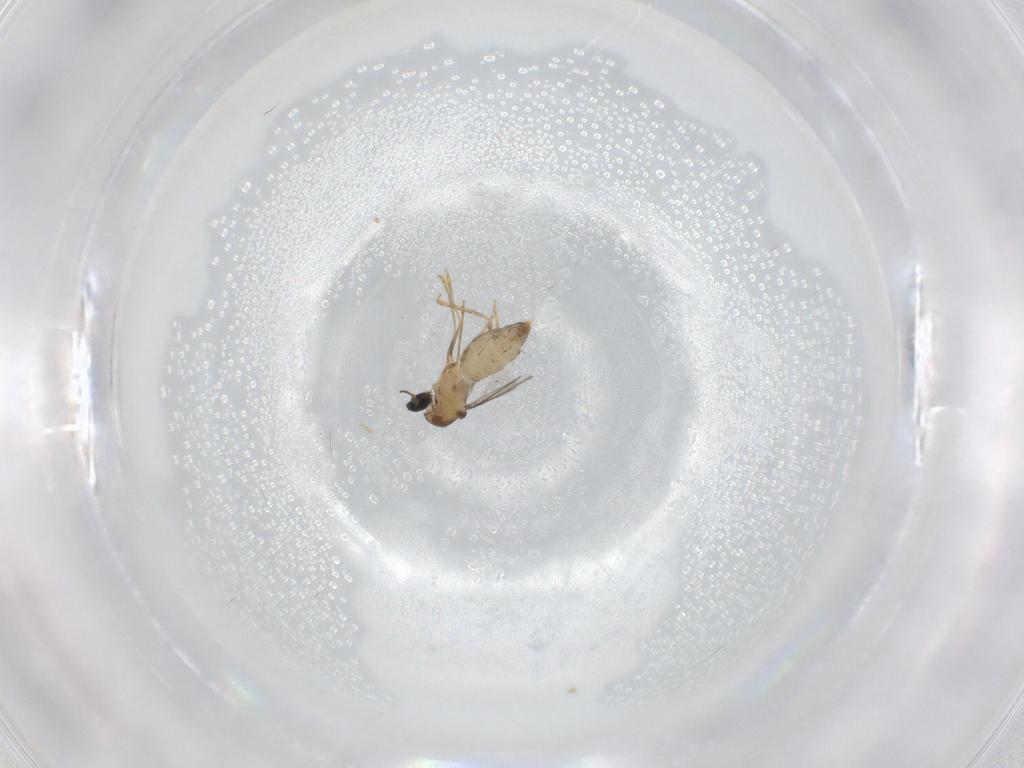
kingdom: Animalia
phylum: Arthropoda
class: Insecta
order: Diptera
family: Cecidomyiidae
